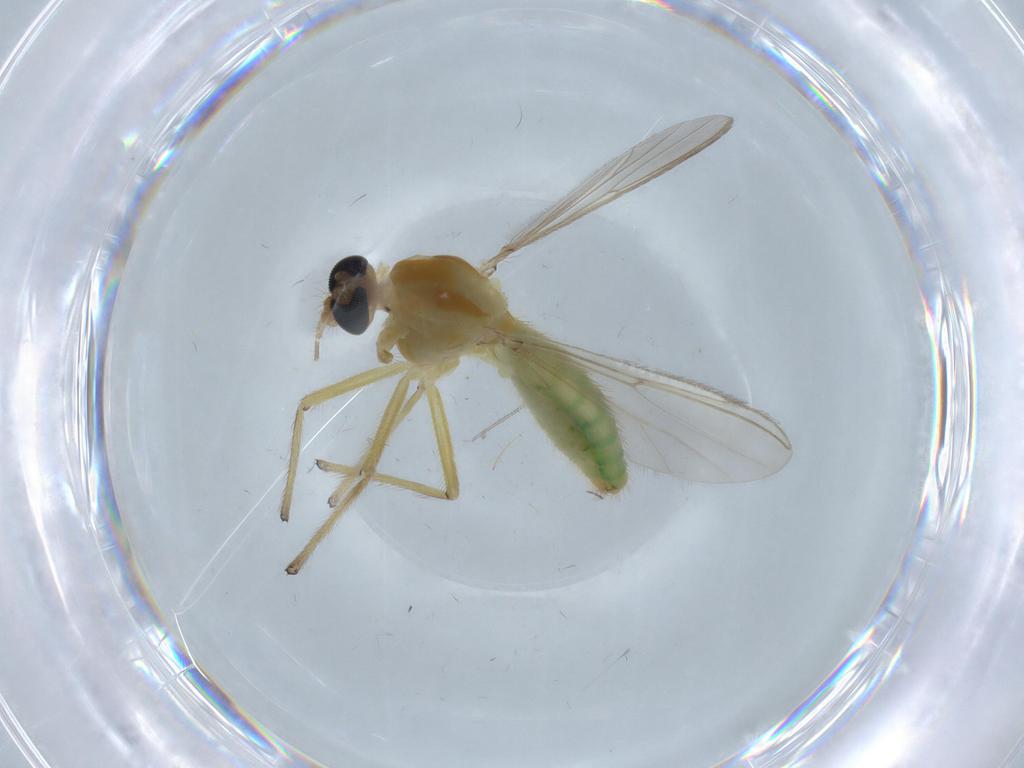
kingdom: Animalia
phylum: Arthropoda
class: Insecta
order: Diptera
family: Chironomidae
